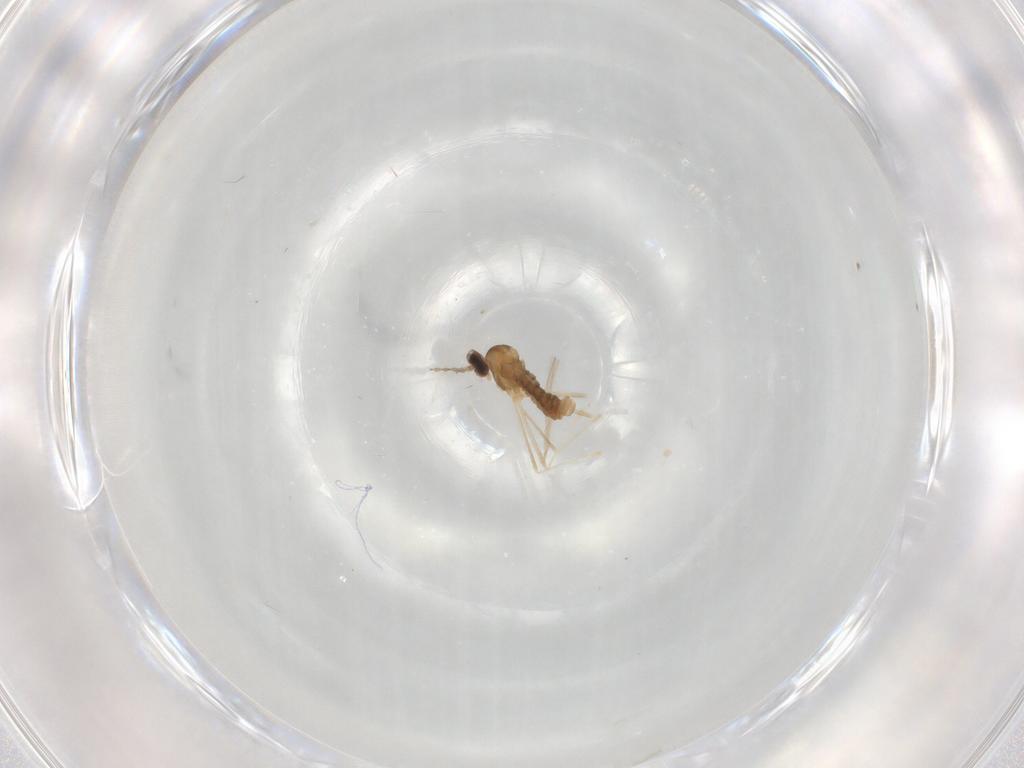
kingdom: Animalia
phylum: Arthropoda
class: Insecta
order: Diptera
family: Cecidomyiidae
